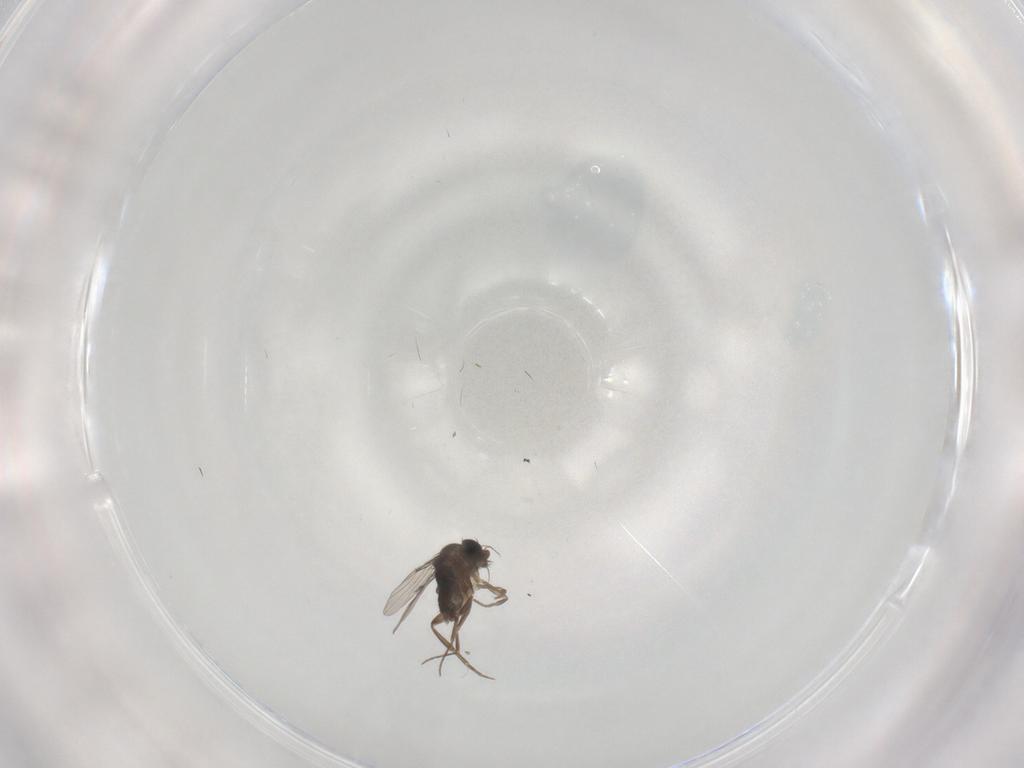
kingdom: Animalia
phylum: Arthropoda
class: Insecta
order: Diptera
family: Phoridae
